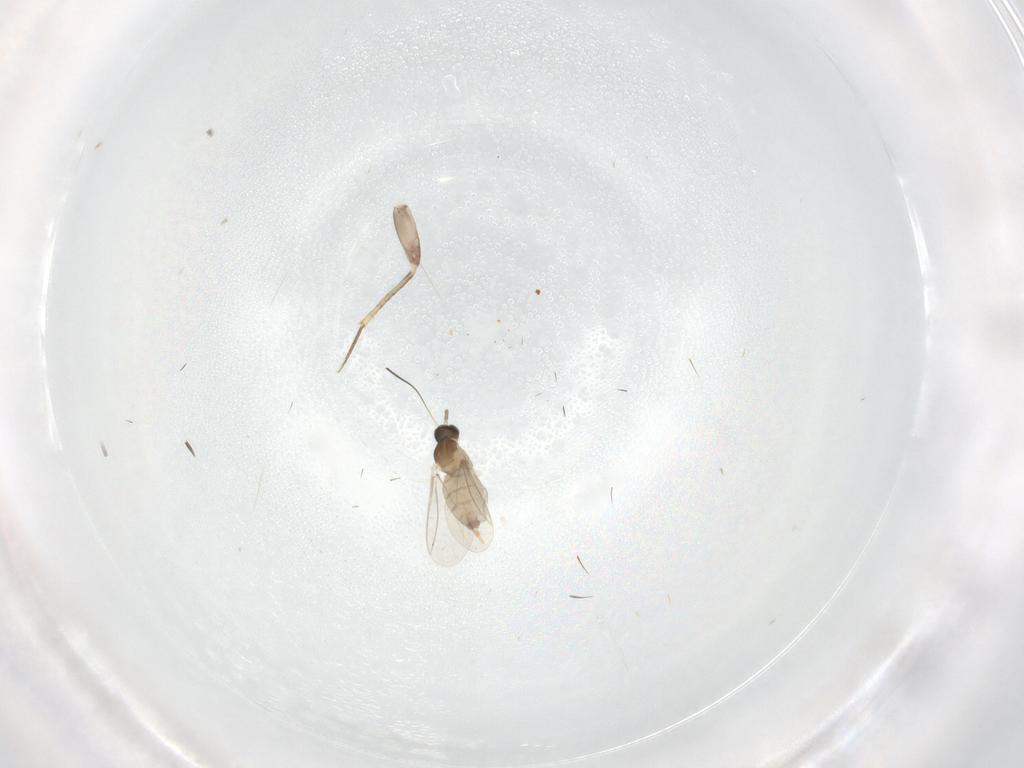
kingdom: Animalia
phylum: Arthropoda
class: Insecta
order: Diptera
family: Cecidomyiidae
